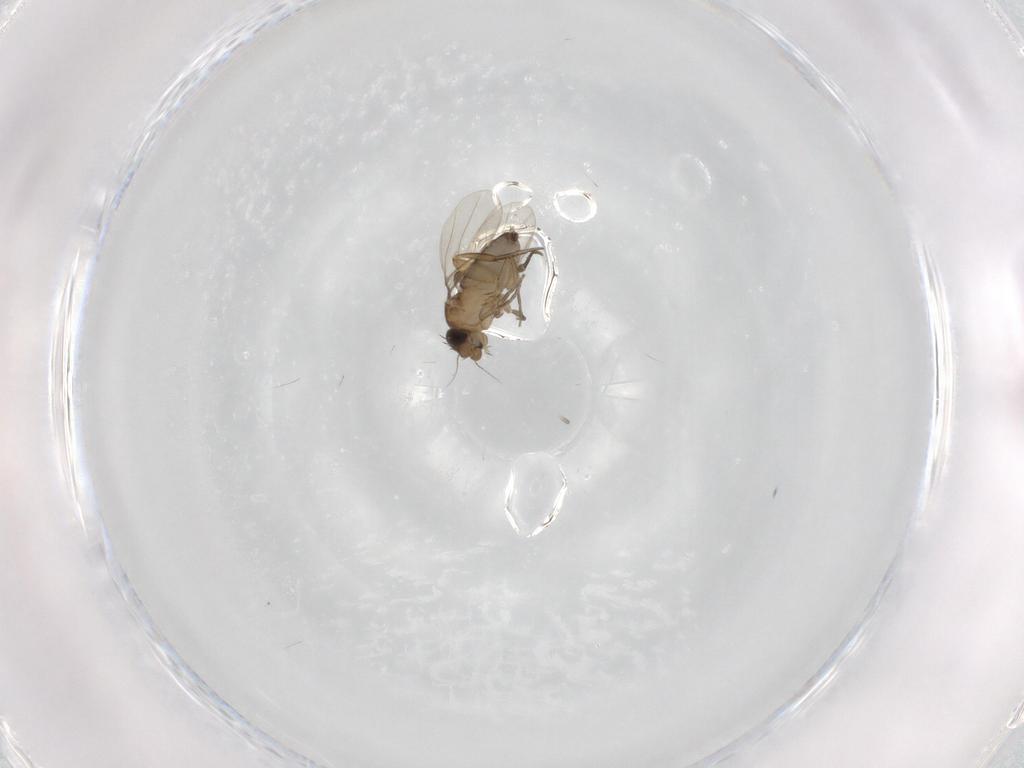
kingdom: Animalia
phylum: Arthropoda
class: Insecta
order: Diptera
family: Phoridae
